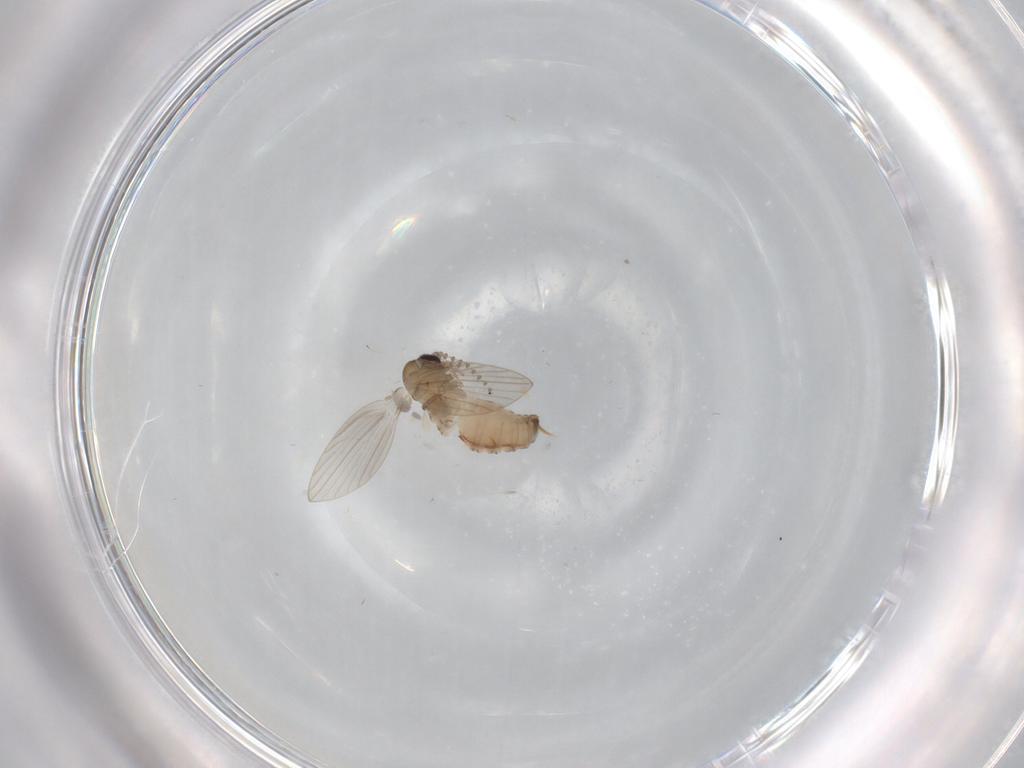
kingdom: Animalia
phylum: Arthropoda
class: Insecta
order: Diptera
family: Psychodidae
